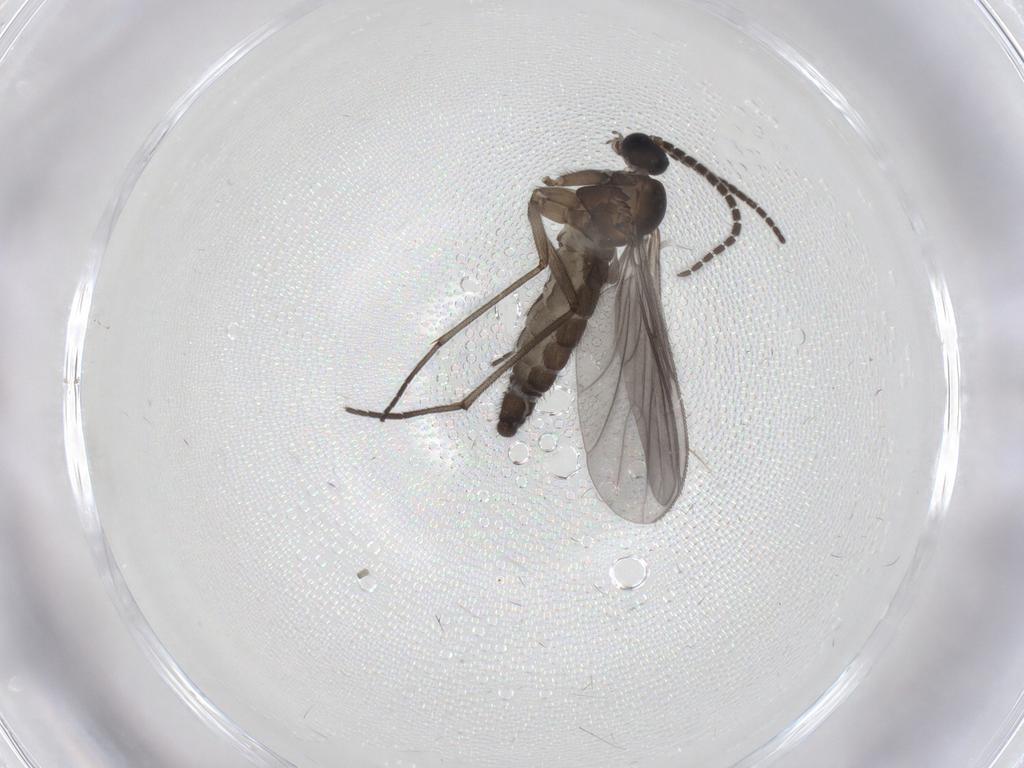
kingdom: Animalia
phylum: Arthropoda
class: Insecta
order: Diptera
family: Sciaridae
